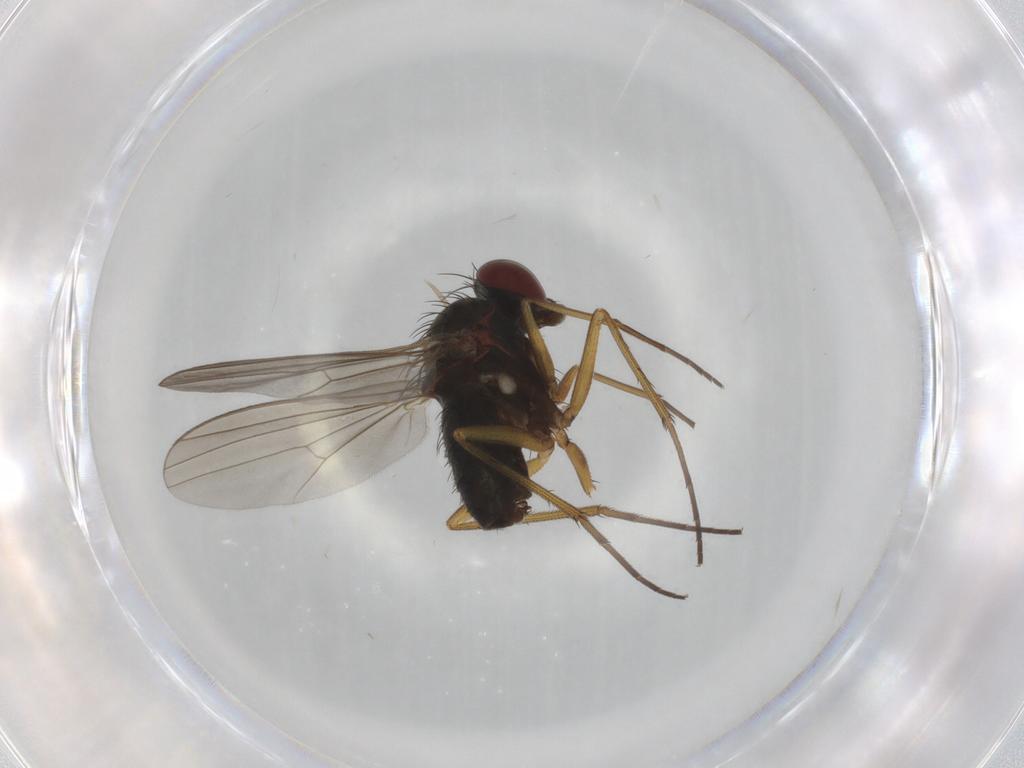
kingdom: Animalia
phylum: Arthropoda
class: Insecta
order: Diptera
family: Dolichopodidae
